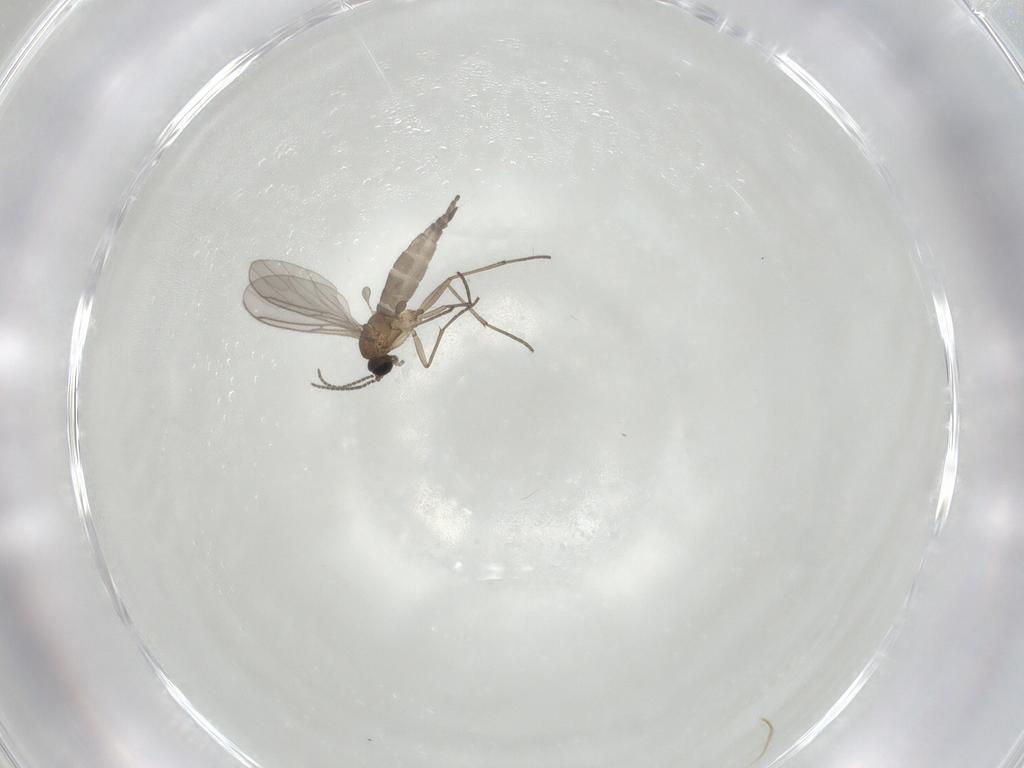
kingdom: Animalia
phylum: Arthropoda
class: Insecta
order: Diptera
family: Sciaridae
